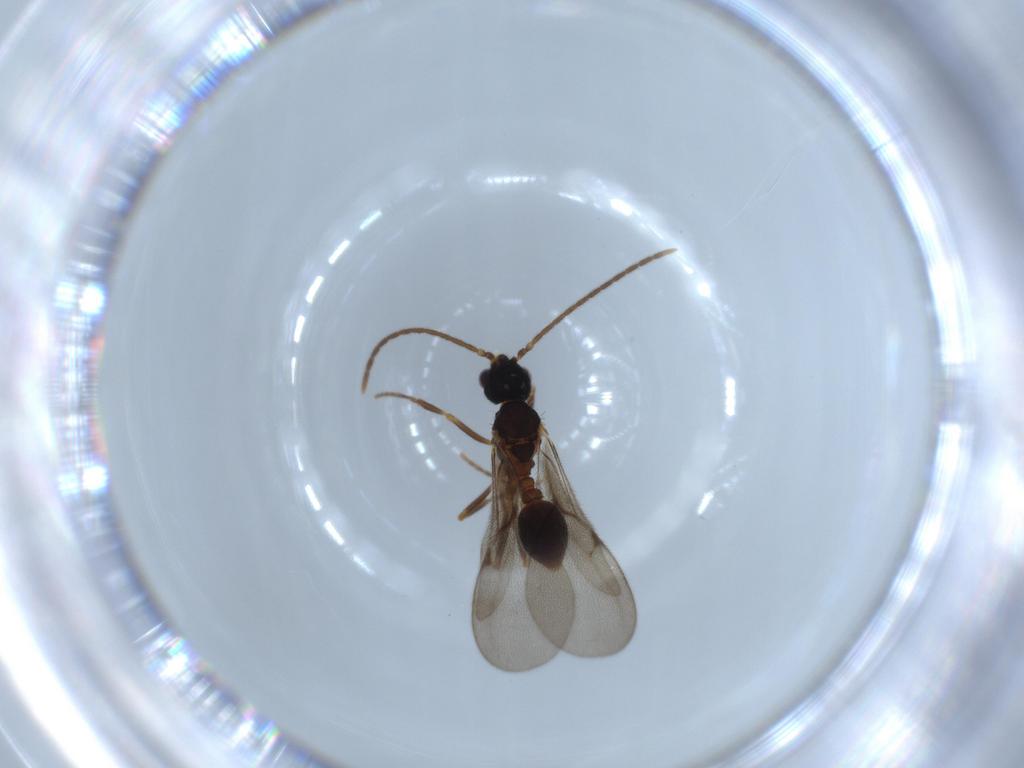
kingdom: Animalia
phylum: Arthropoda
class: Insecta
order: Hymenoptera
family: Formicidae
